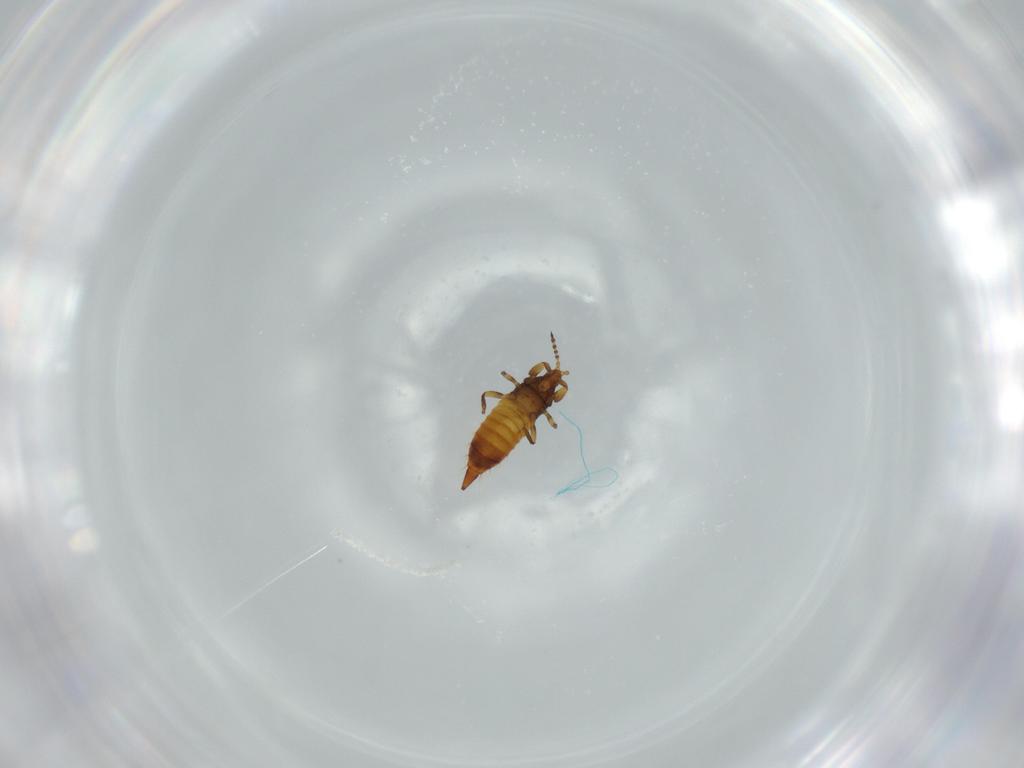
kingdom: Animalia
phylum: Arthropoda
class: Insecta
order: Thysanoptera
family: Phlaeothripidae
